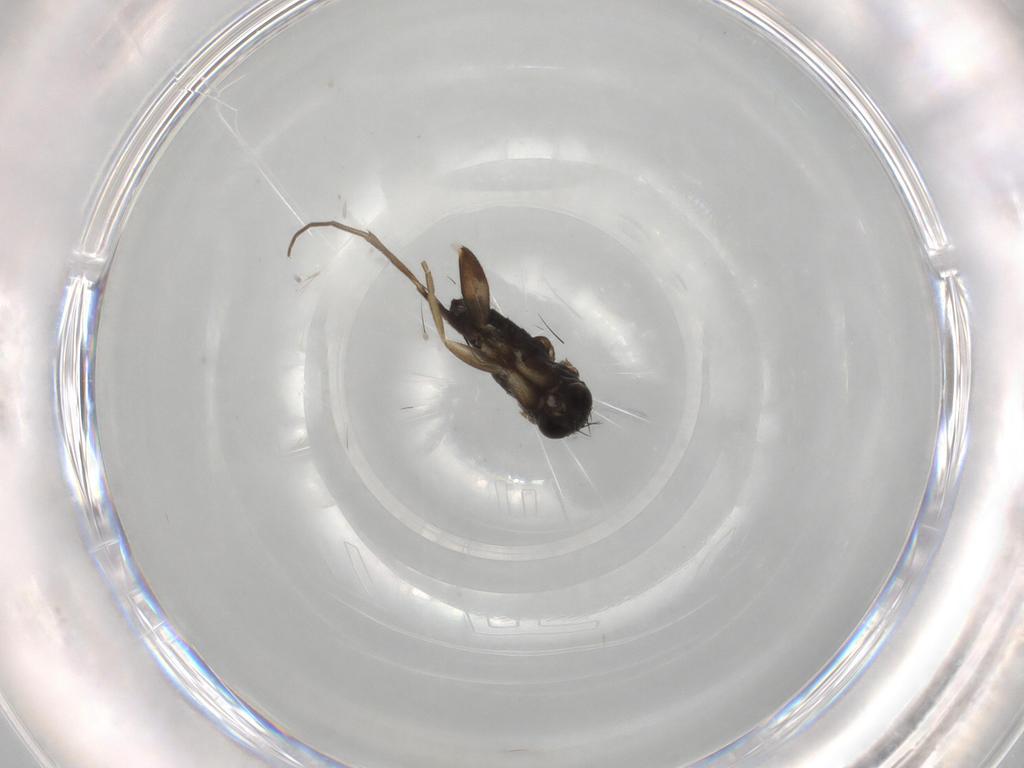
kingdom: Animalia
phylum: Arthropoda
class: Insecta
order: Diptera
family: Phoridae
